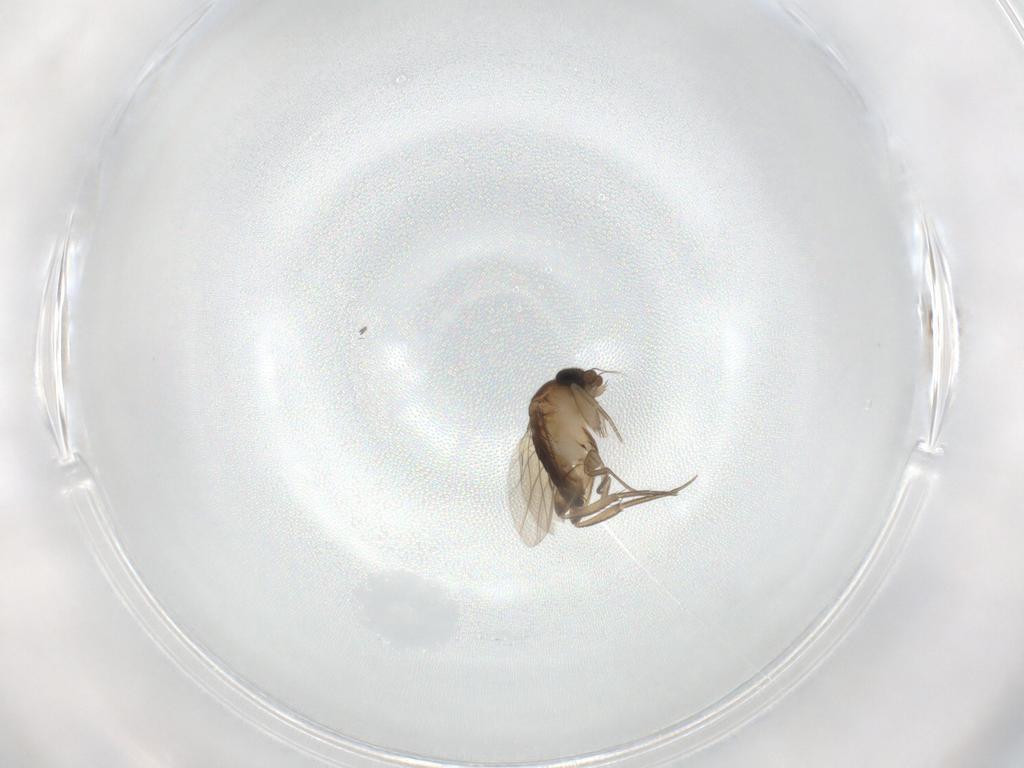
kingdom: Animalia
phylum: Arthropoda
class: Insecta
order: Diptera
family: Phoridae
